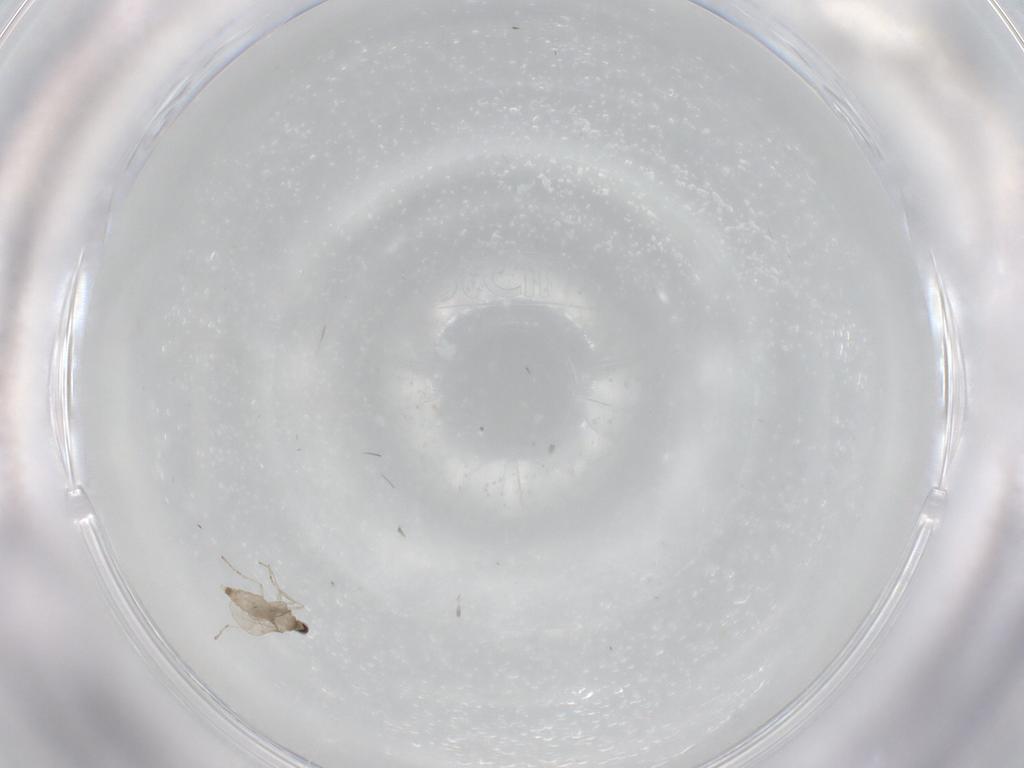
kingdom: Animalia
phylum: Arthropoda
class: Insecta
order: Diptera
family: Cecidomyiidae
